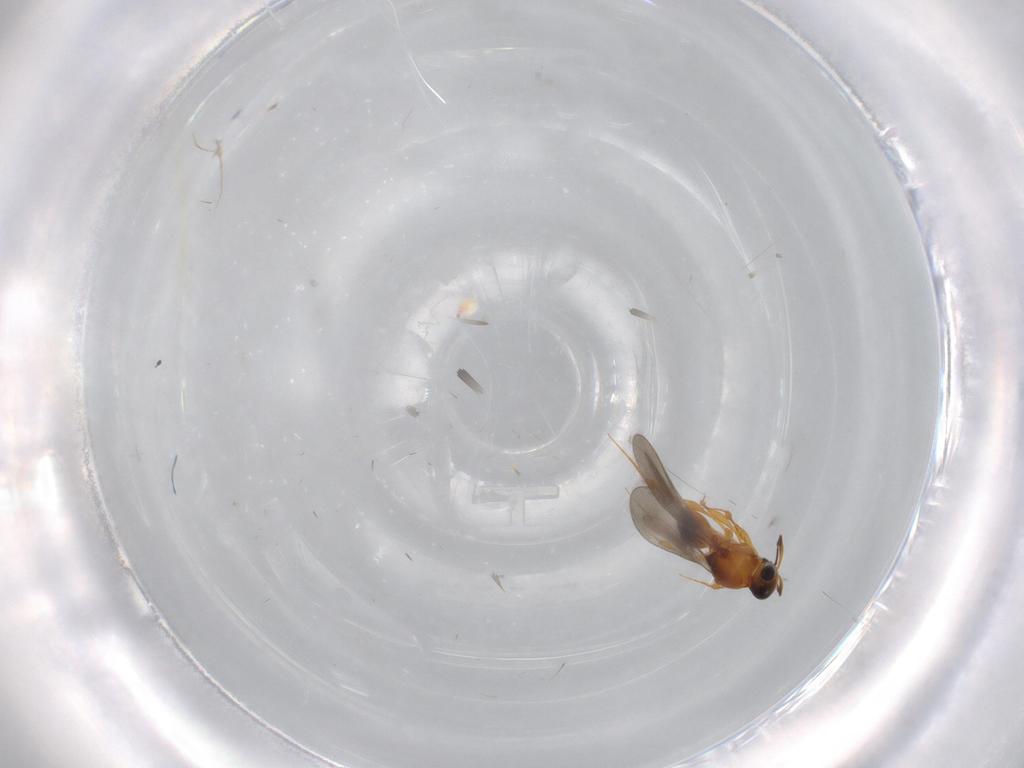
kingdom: Animalia
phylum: Arthropoda
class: Insecta
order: Hymenoptera
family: Platygastridae
